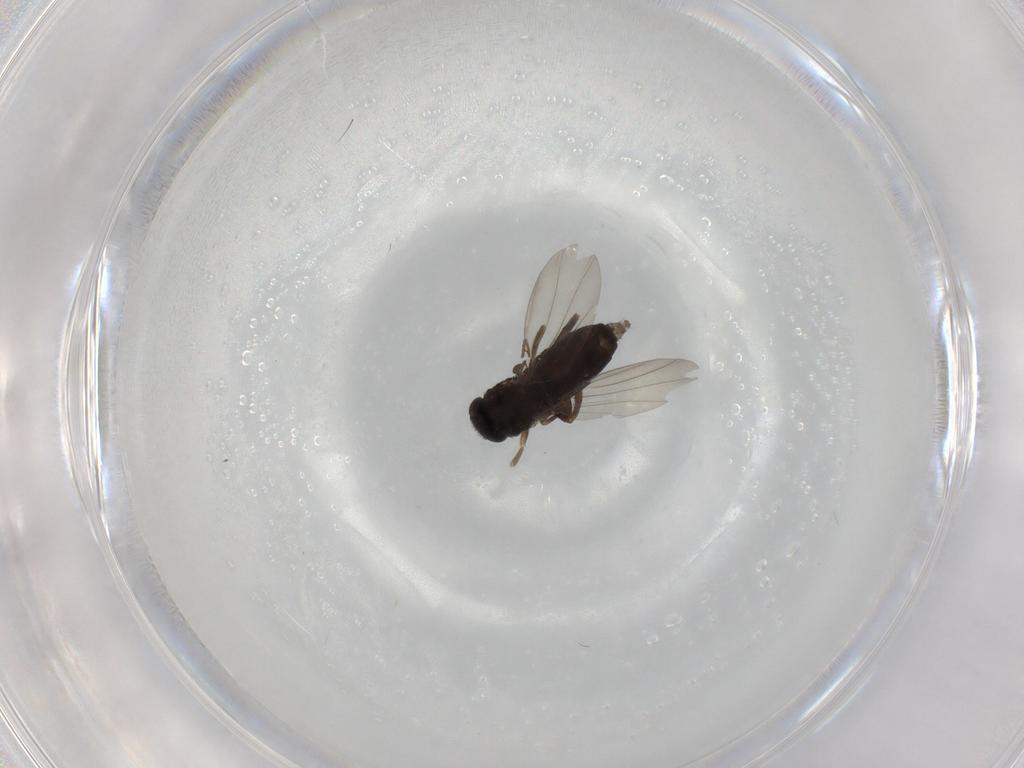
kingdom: Animalia
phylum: Arthropoda
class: Insecta
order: Diptera
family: Phoridae
